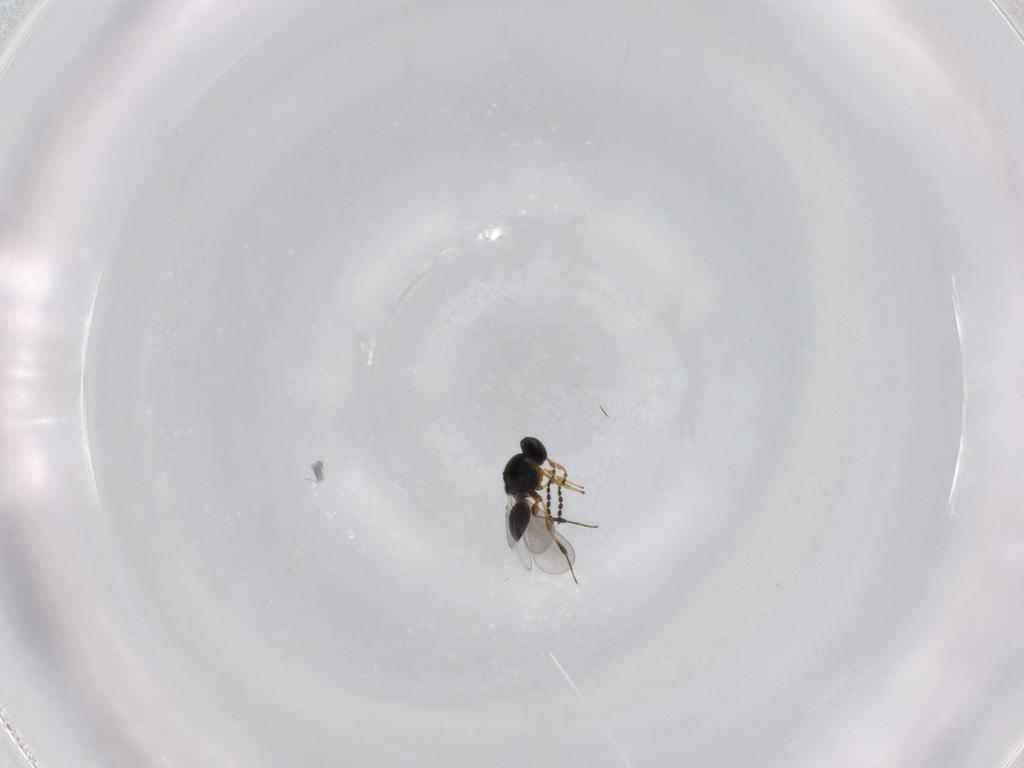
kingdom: Animalia
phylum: Arthropoda
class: Insecta
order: Hymenoptera
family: Platygastridae
